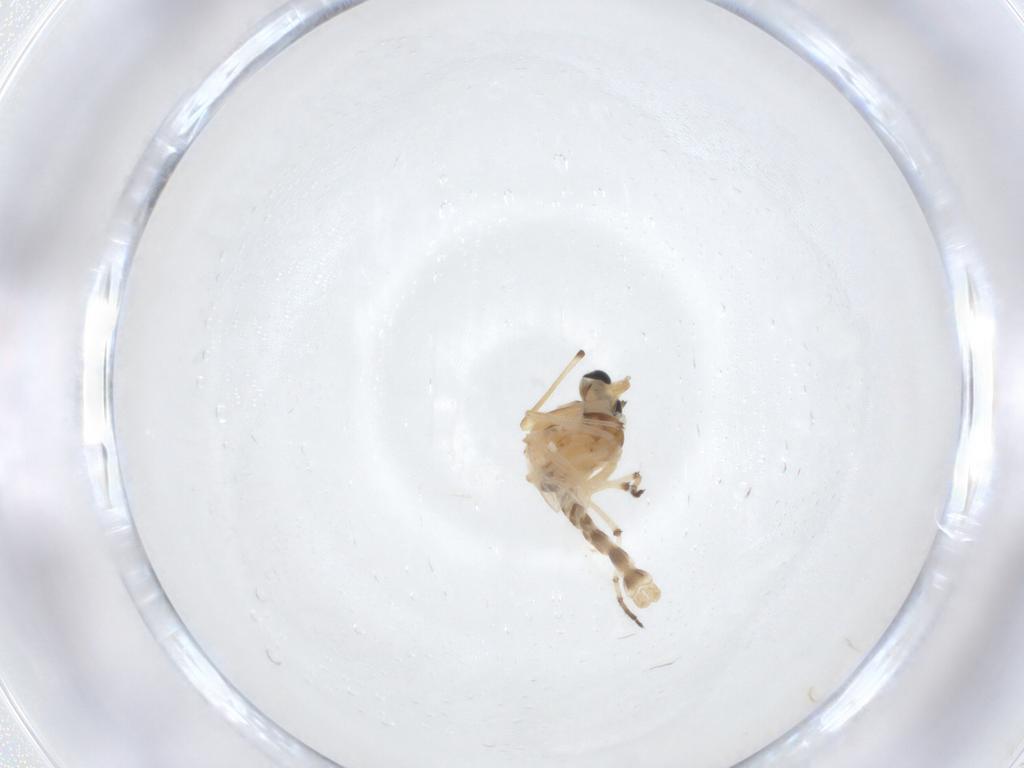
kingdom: Animalia
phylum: Arthropoda
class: Insecta
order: Diptera
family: Chironomidae
